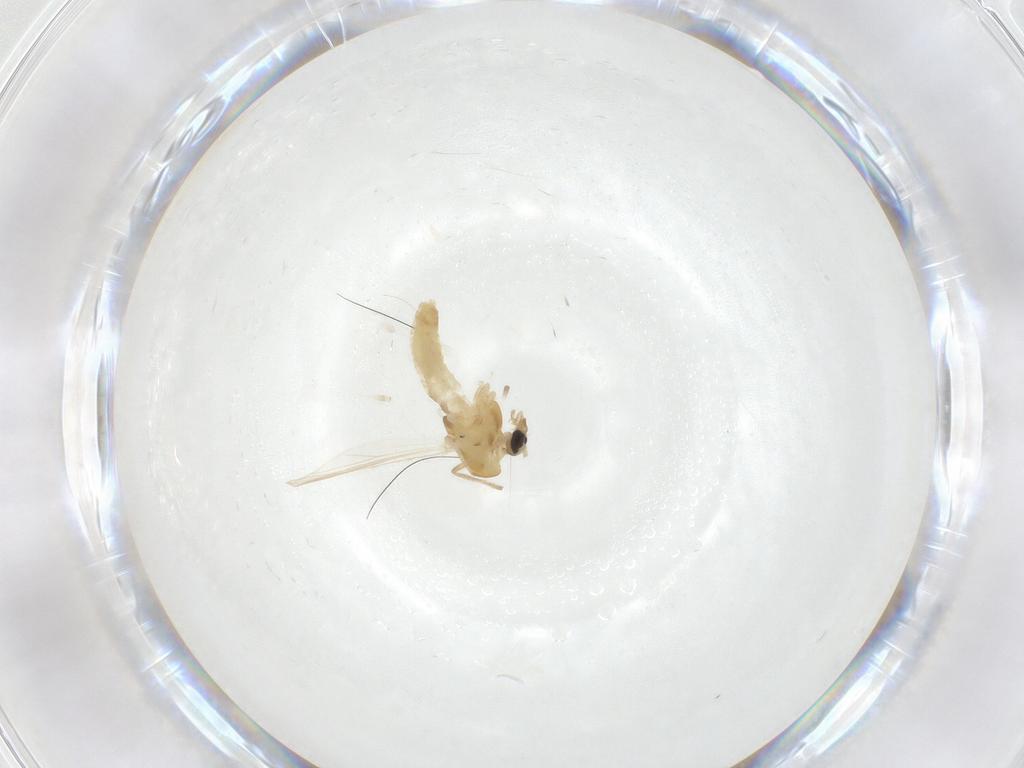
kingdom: Animalia
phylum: Arthropoda
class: Insecta
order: Diptera
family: Chironomidae
